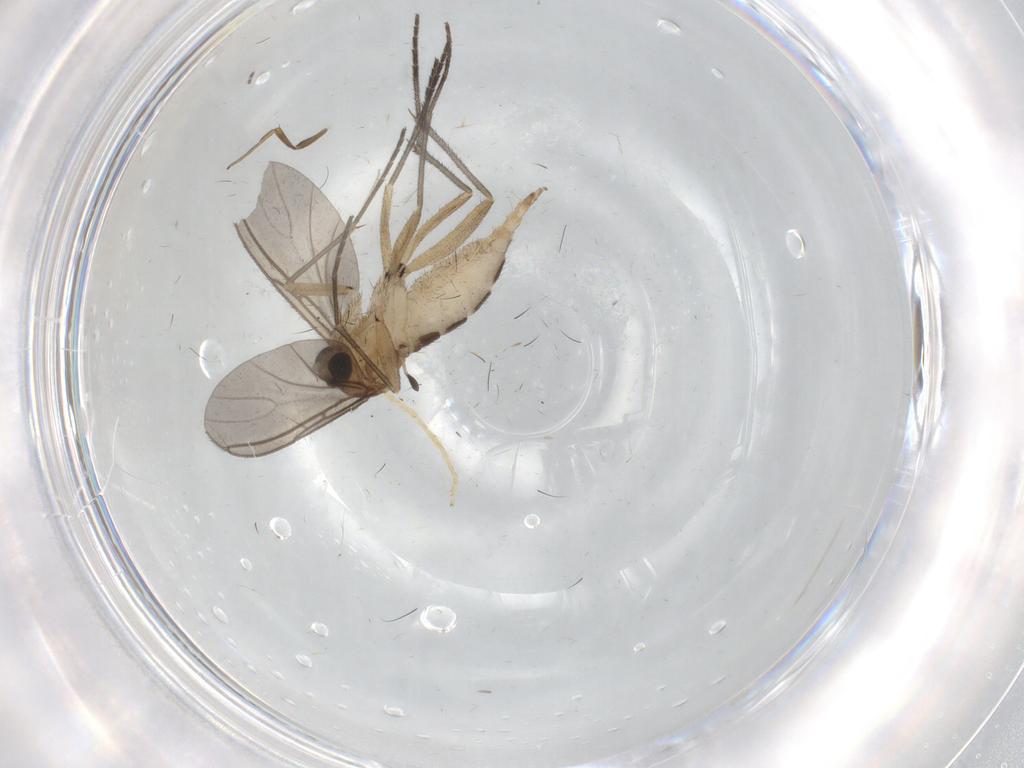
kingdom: Animalia
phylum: Arthropoda
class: Insecta
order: Diptera
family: Sciaridae
